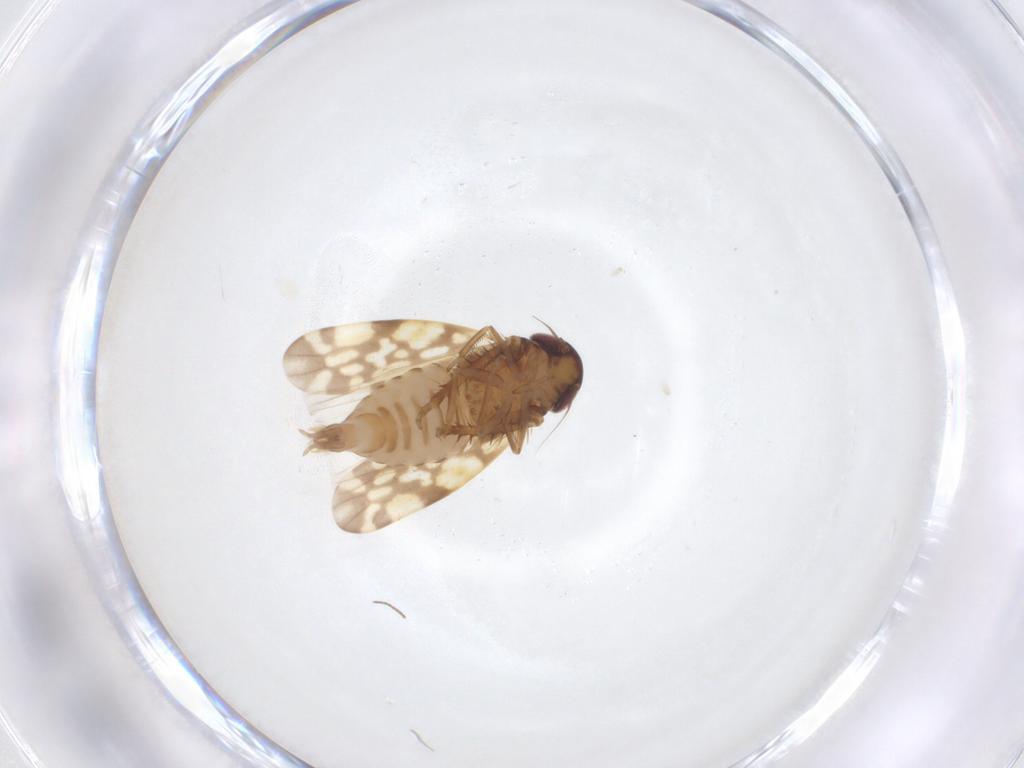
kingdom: Animalia
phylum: Arthropoda
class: Insecta
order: Hemiptera
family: Cicadellidae
